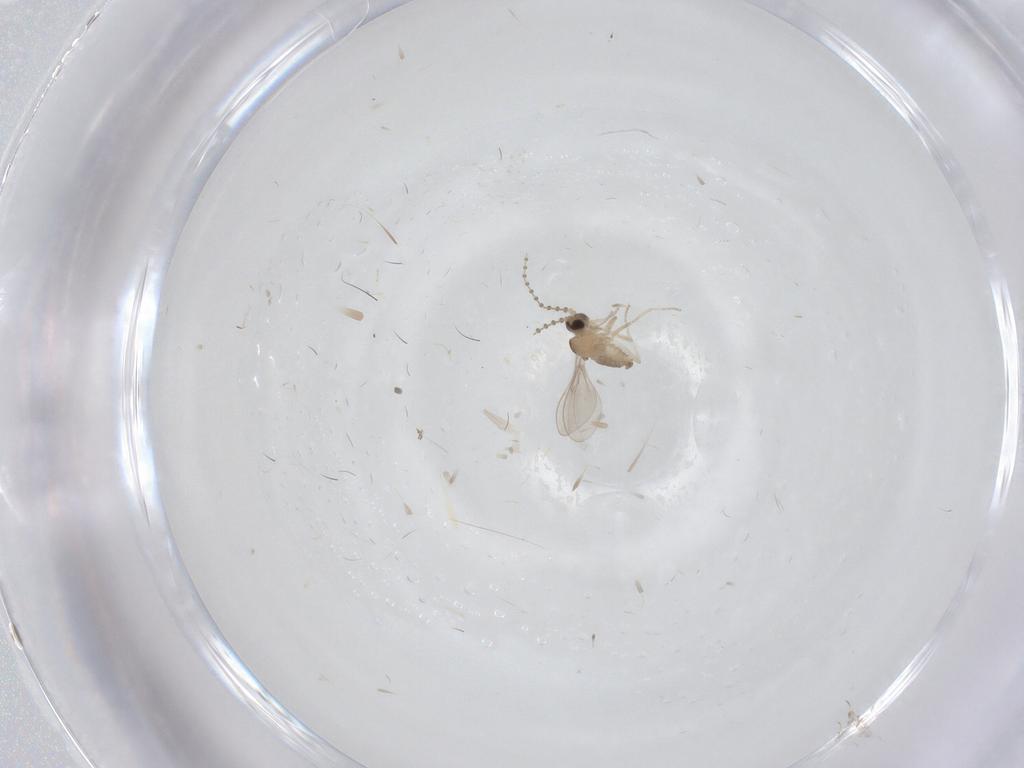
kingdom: Animalia
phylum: Arthropoda
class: Insecta
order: Diptera
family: Cecidomyiidae
